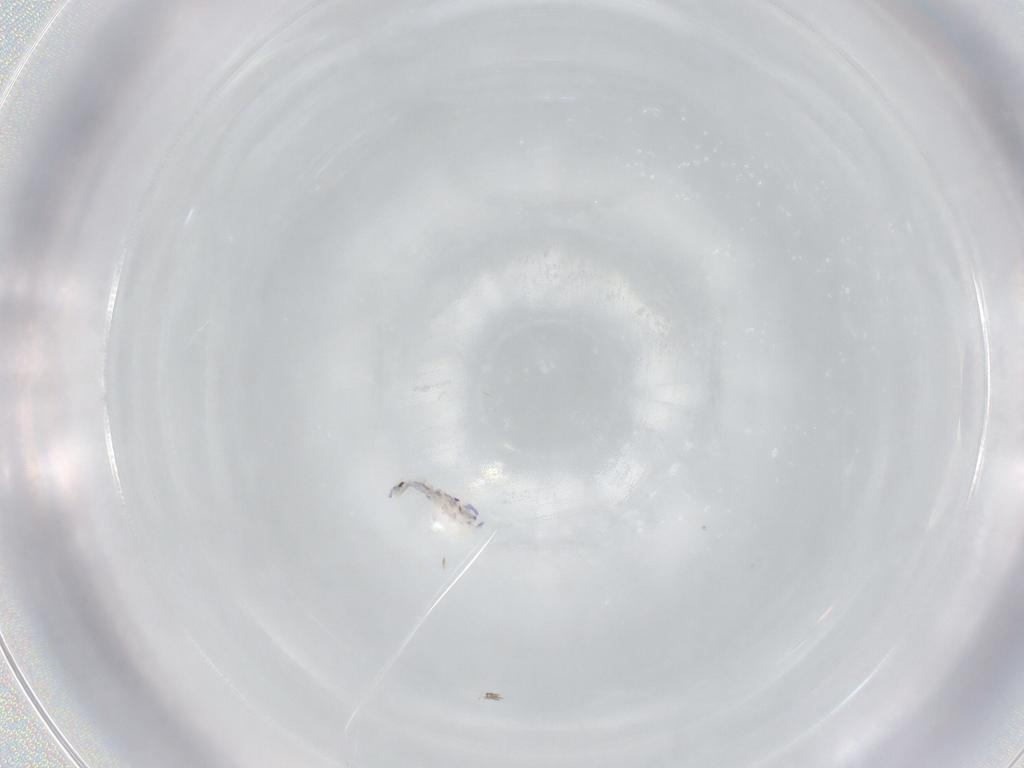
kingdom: Animalia
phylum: Arthropoda
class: Collembola
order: Entomobryomorpha
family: Entomobryidae
